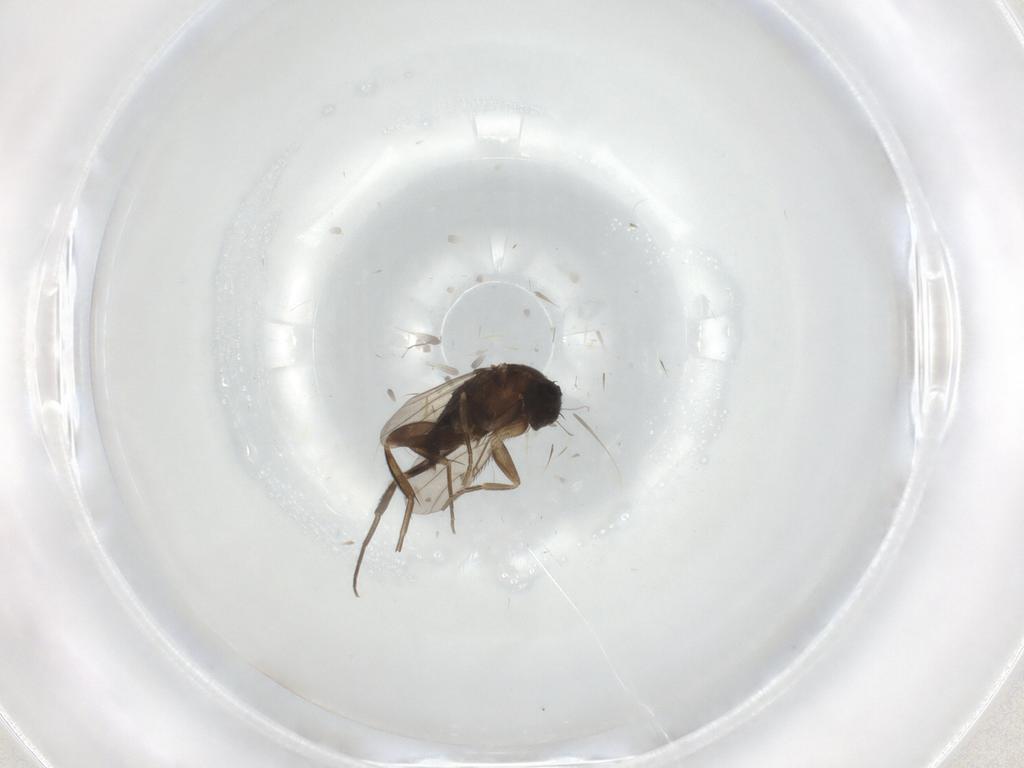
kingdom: Animalia
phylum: Arthropoda
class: Insecta
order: Diptera
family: Phoridae
